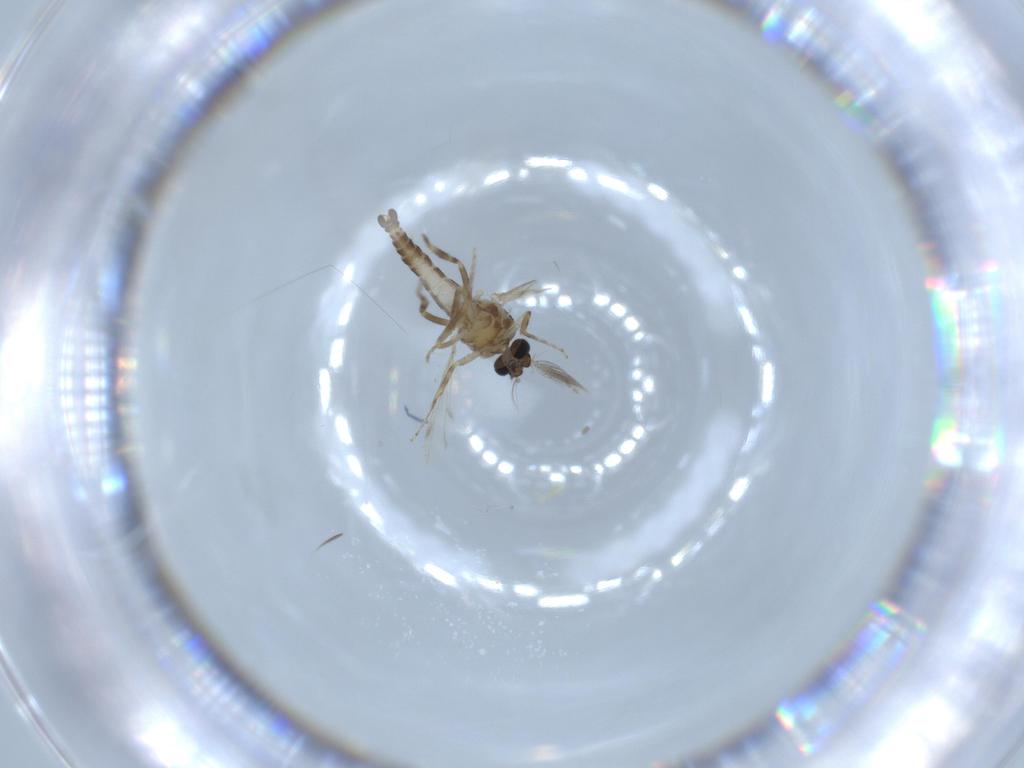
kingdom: Animalia
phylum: Arthropoda
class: Insecta
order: Diptera
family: Ceratopogonidae
